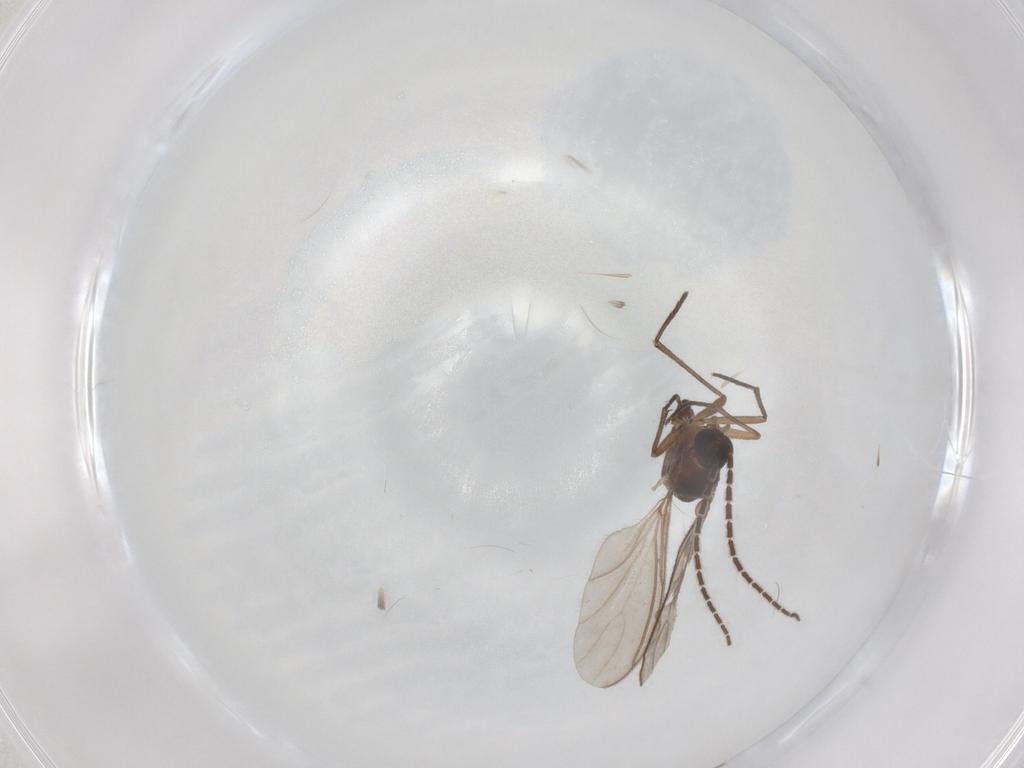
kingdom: Animalia
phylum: Arthropoda
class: Insecta
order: Diptera
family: Sciaridae
